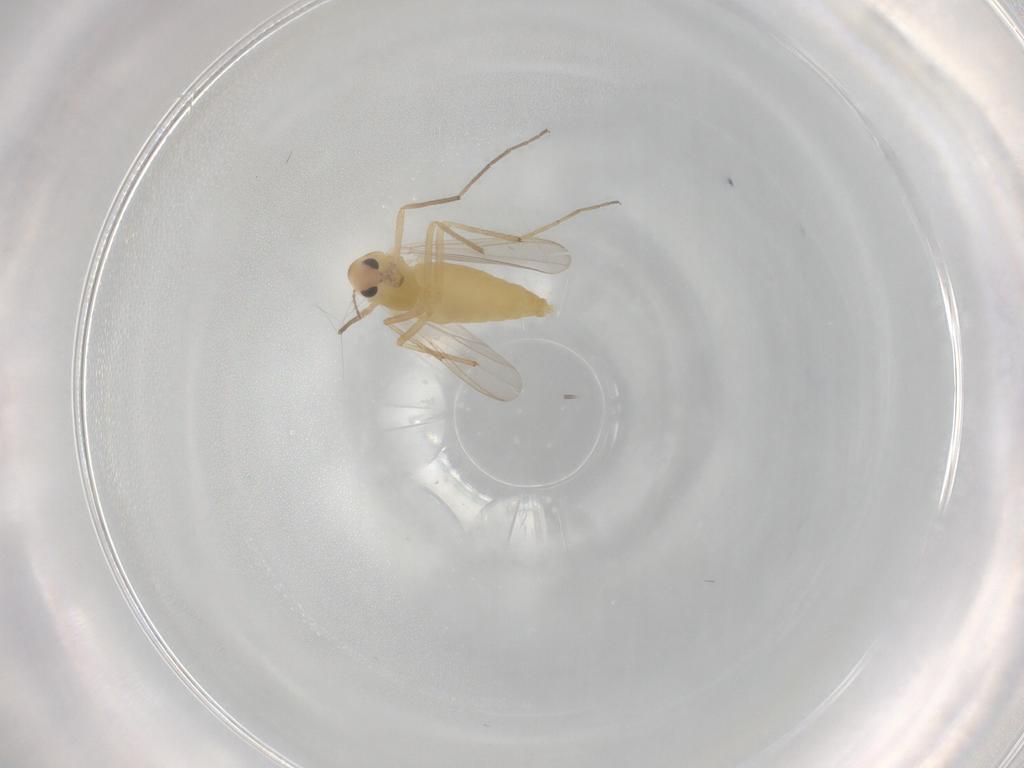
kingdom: Animalia
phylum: Arthropoda
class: Insecta
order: Diptera
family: Chironomidae
